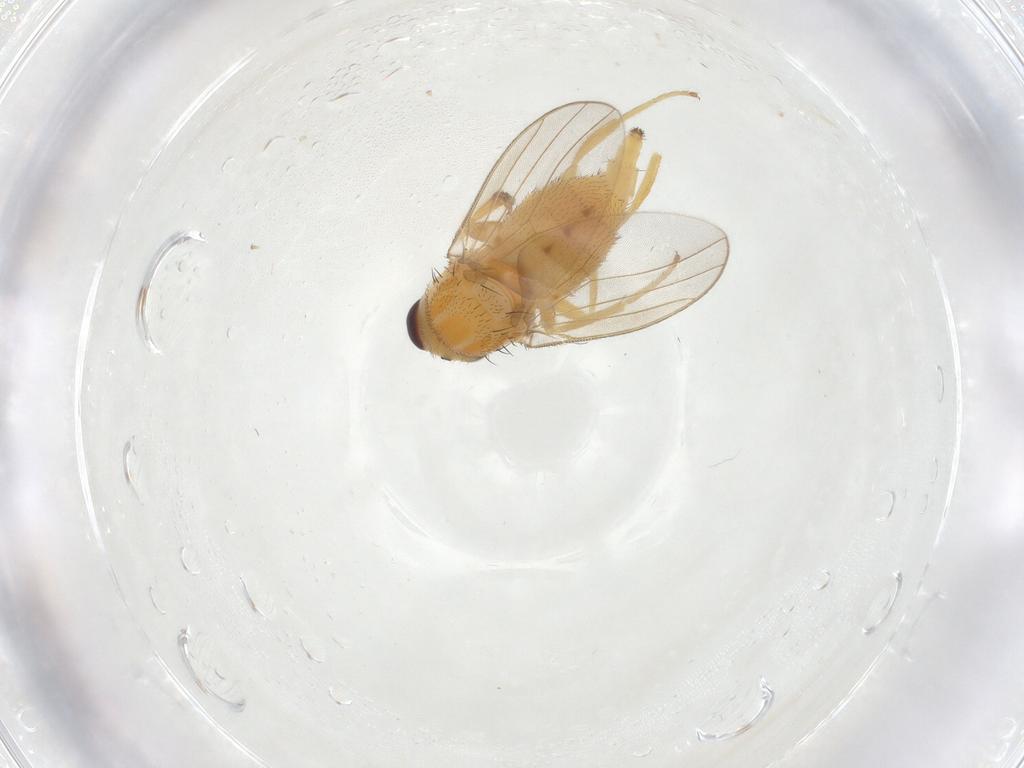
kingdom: Animalia
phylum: Arthropoda
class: Insecta
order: Diptera
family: Chloropidae
